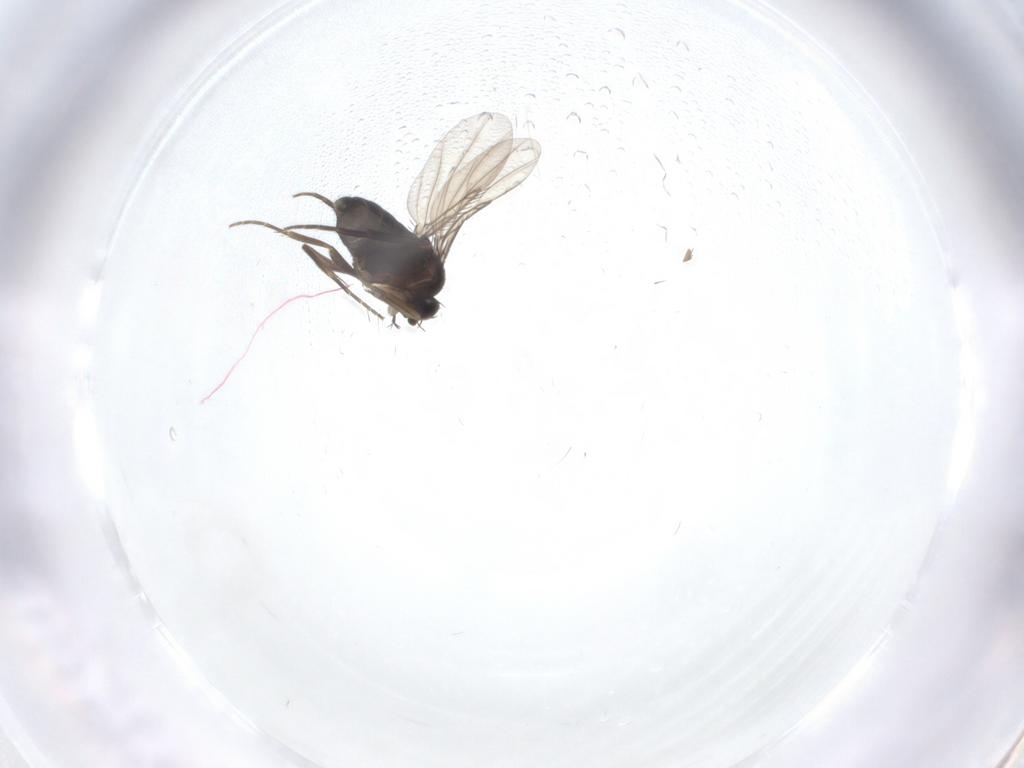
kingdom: Animalia
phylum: Arthropoda
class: Insecta
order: Diptera
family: Phoridae
